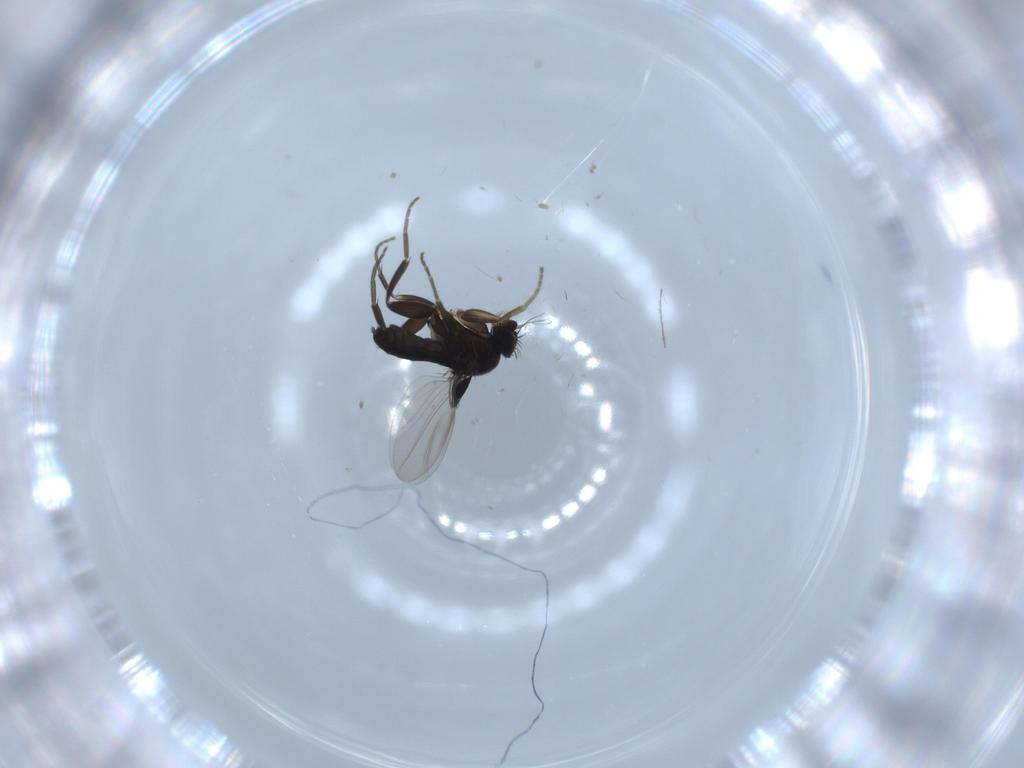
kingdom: Animalia
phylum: Arthropoda
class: Insecta
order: Diptera
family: Phoridae
